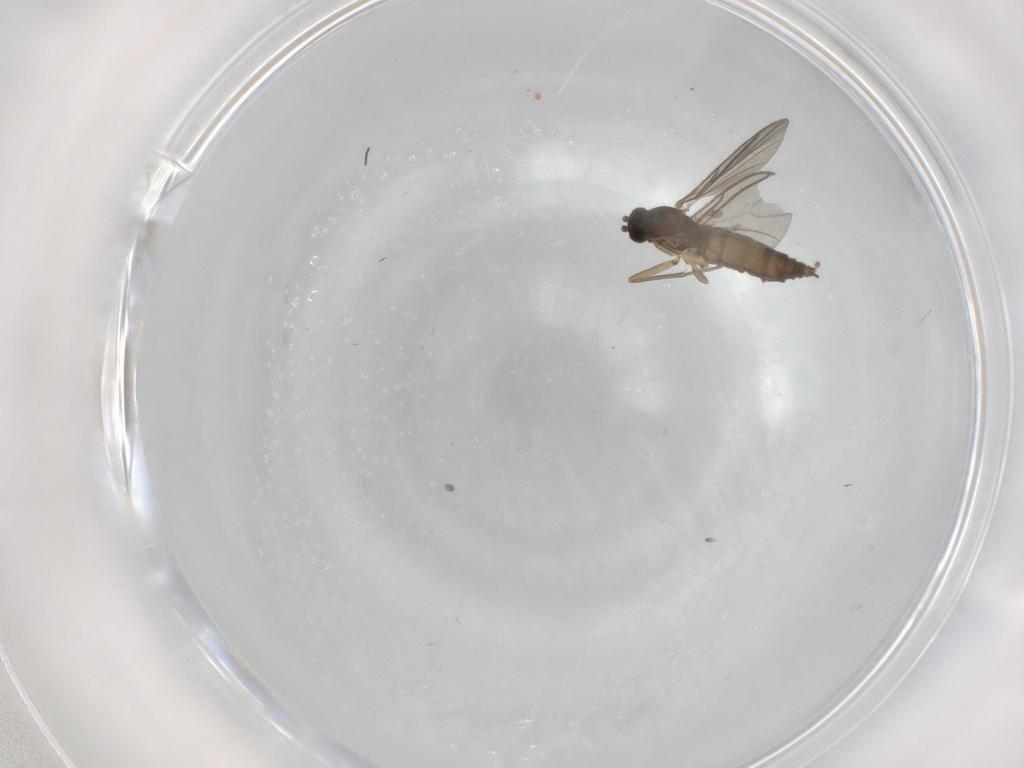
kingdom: Animalia
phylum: Arthropoda
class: Insecta
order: Diptera
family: Cecidomyiidae
